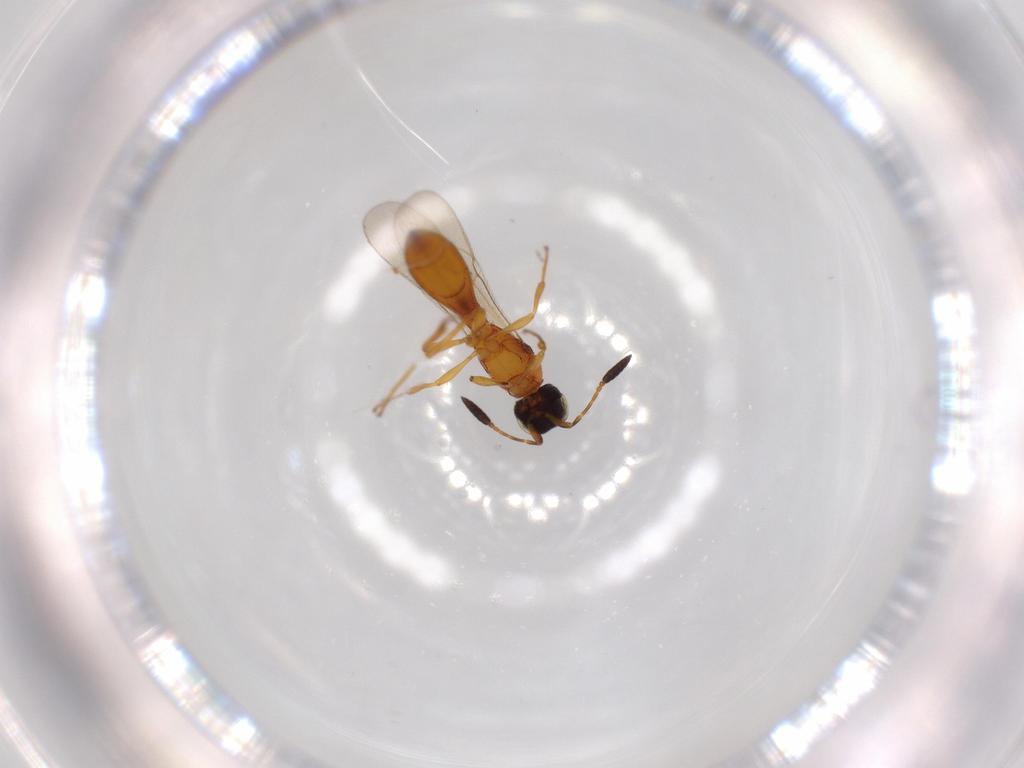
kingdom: Animalia
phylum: Arthropoda
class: Insecta
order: Hymenoptera
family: Scelionidae
